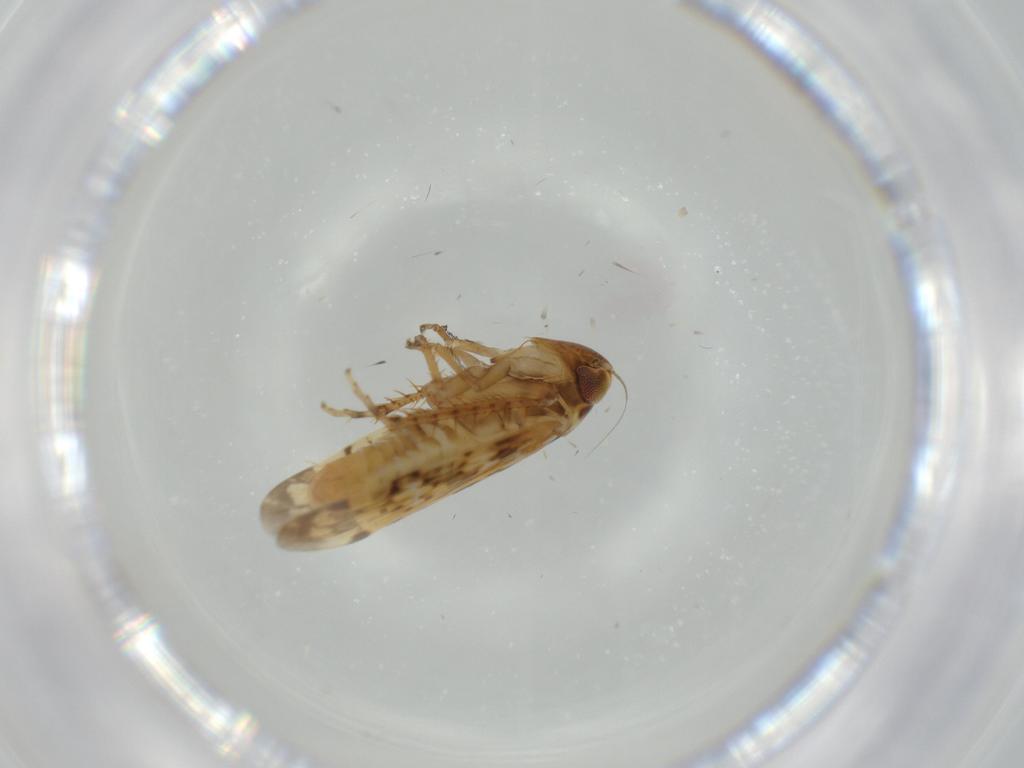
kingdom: Animalia
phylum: Arthropoda
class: Insecta
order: Hemiptera
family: Cicadellidae
